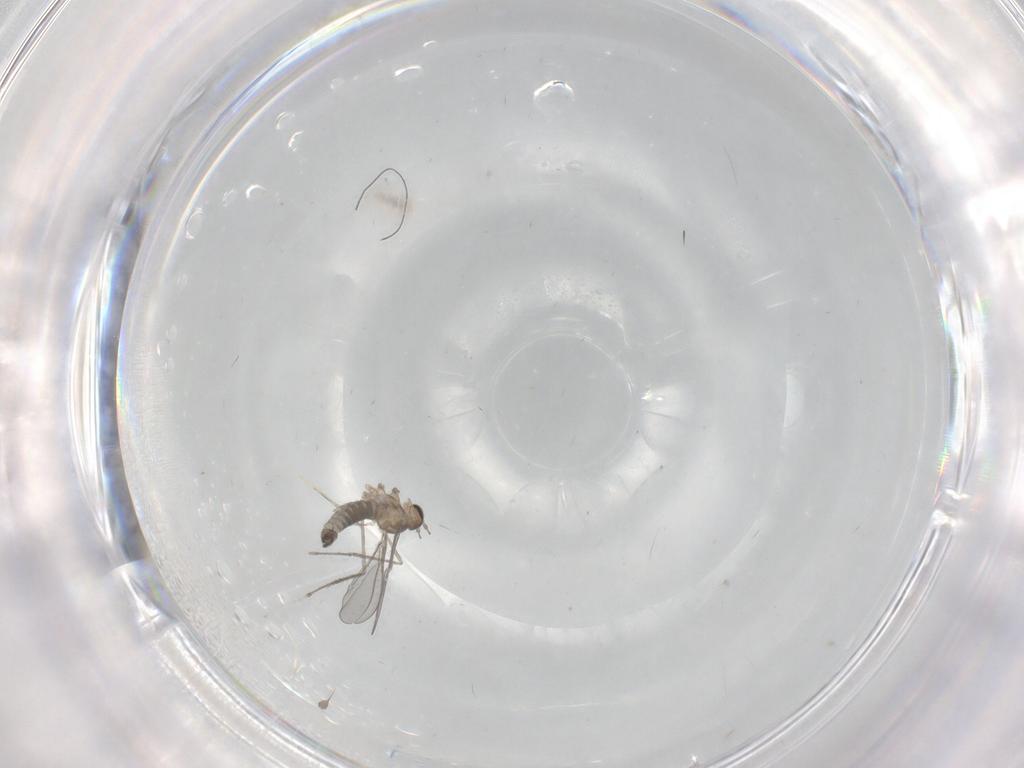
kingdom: Animalia
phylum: Arthropoda
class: Insecta
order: Diptera
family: Cecidomyiidae
